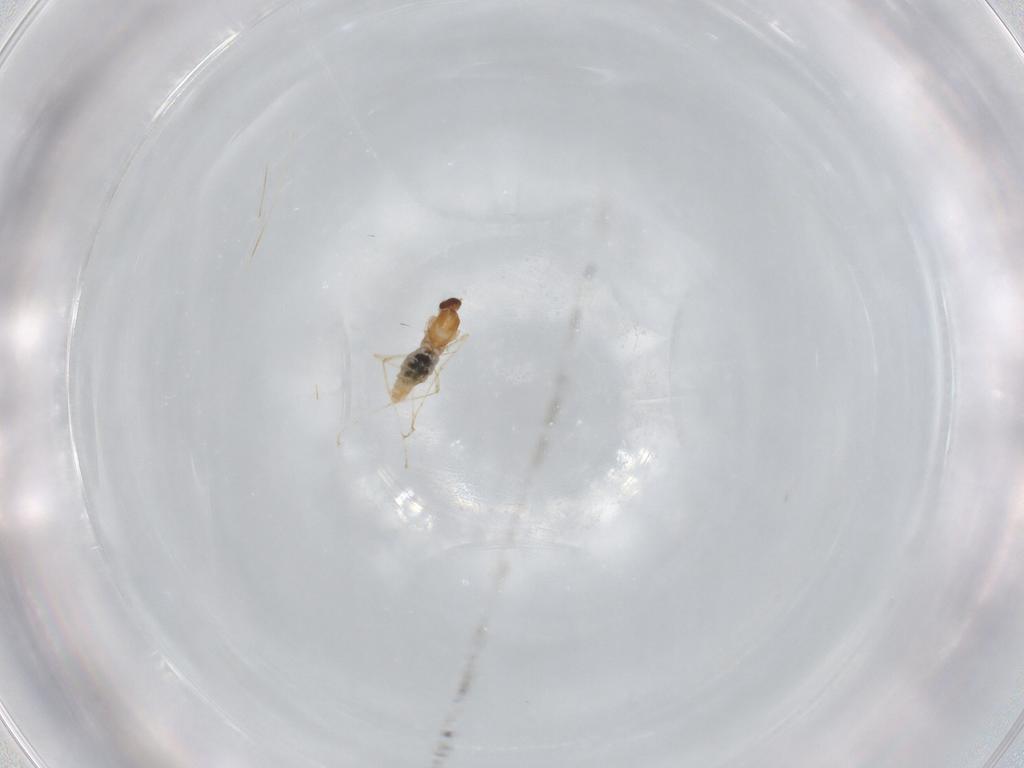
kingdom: Animalia
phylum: Arthropoda
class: Insecta
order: Diptera
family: Cecidomyiidae
